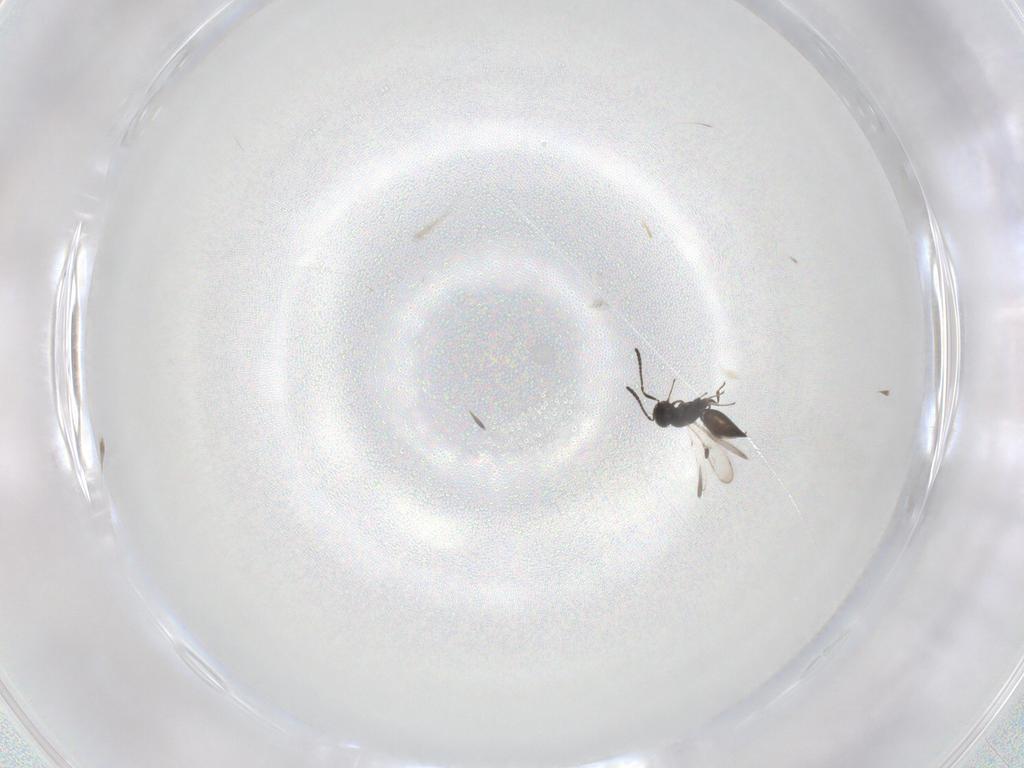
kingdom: Animalia
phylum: Arthropoda
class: Insecta
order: Hymenoptera
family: Scelionidae
